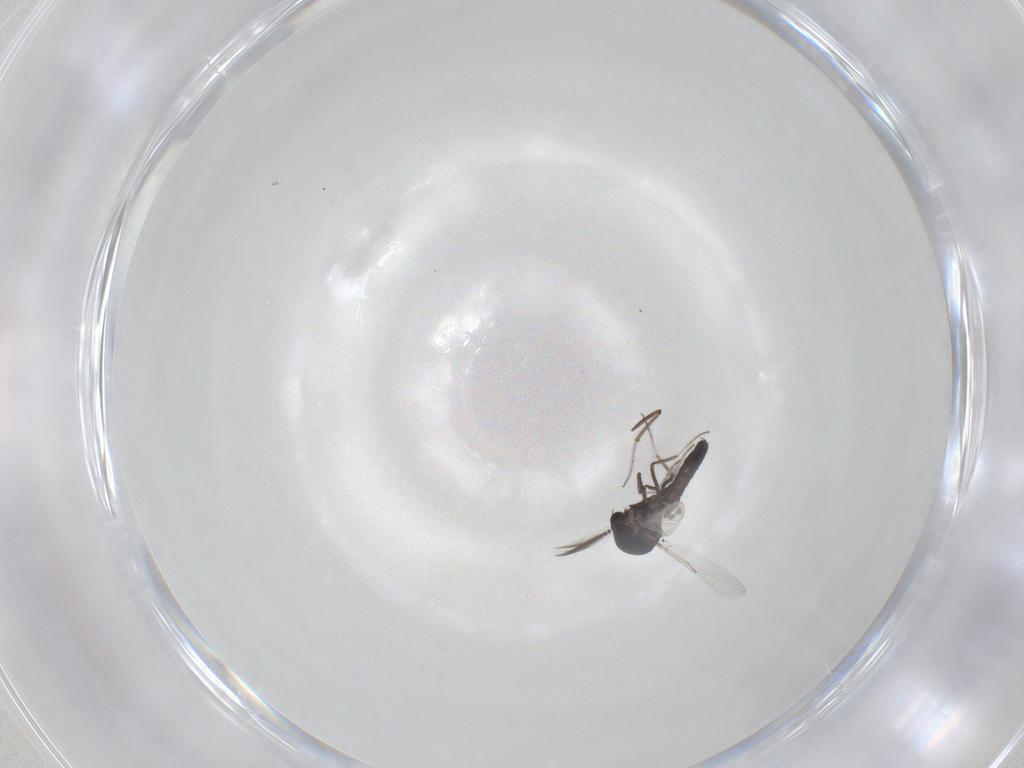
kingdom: Animalia
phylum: Arthropoda
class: Insecta
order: Diptera
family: Ceratopogonidae
